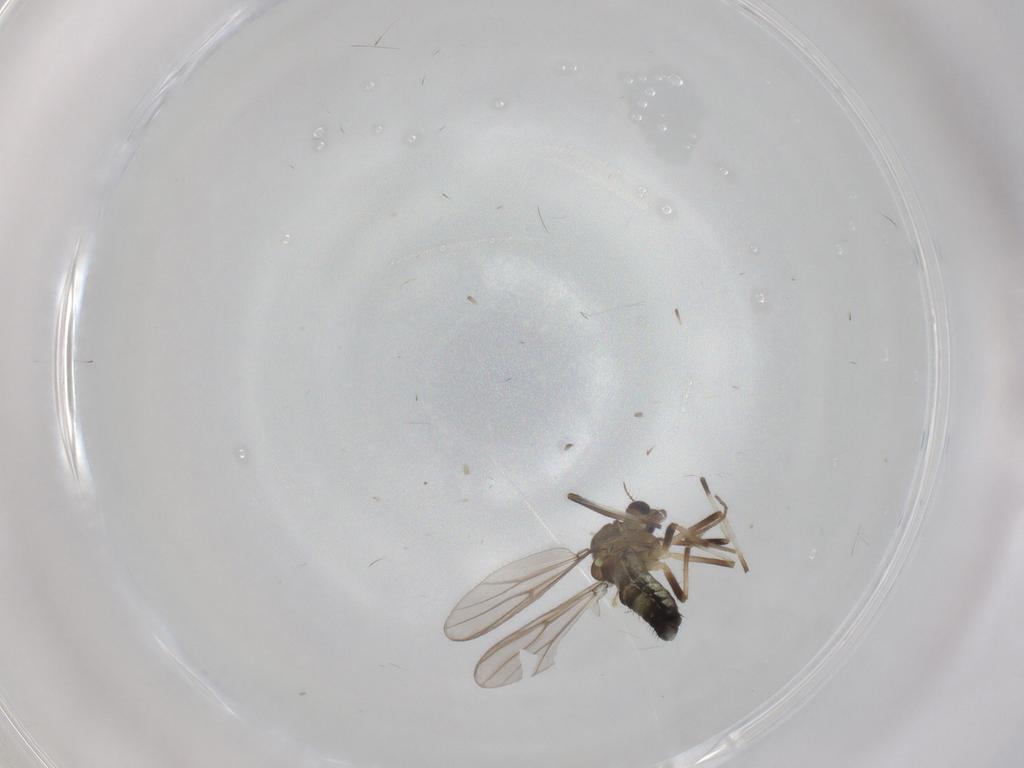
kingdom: Animalia
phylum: Arthropoda
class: Insecta
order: Diptera
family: Chironomidae
